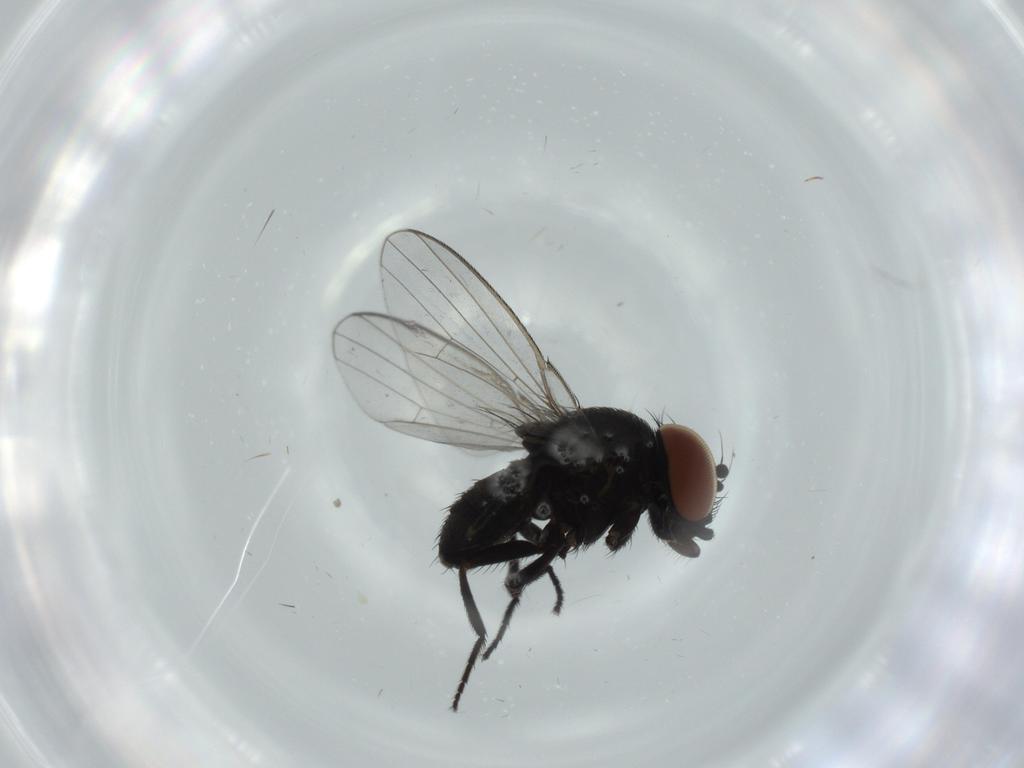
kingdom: Animalia
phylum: Arthropoda
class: Insecta
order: Diptera
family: Milichiidae
